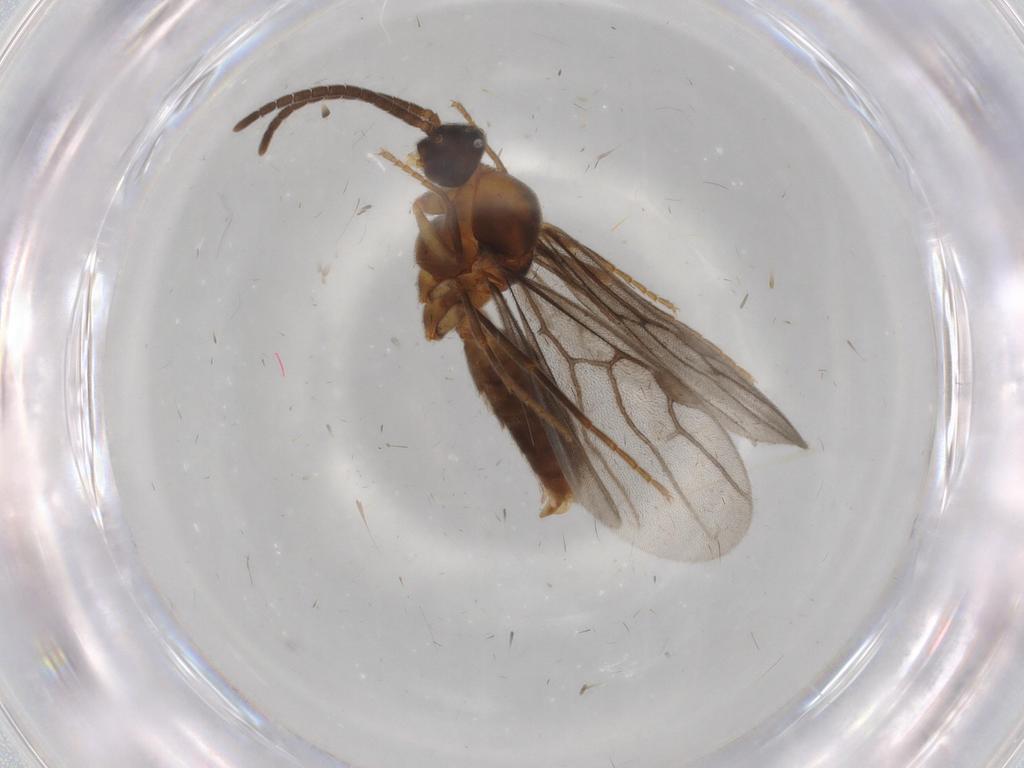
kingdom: Animalia
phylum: Arthropoda
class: Insecta
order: Hymenoptera
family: Formicidae
